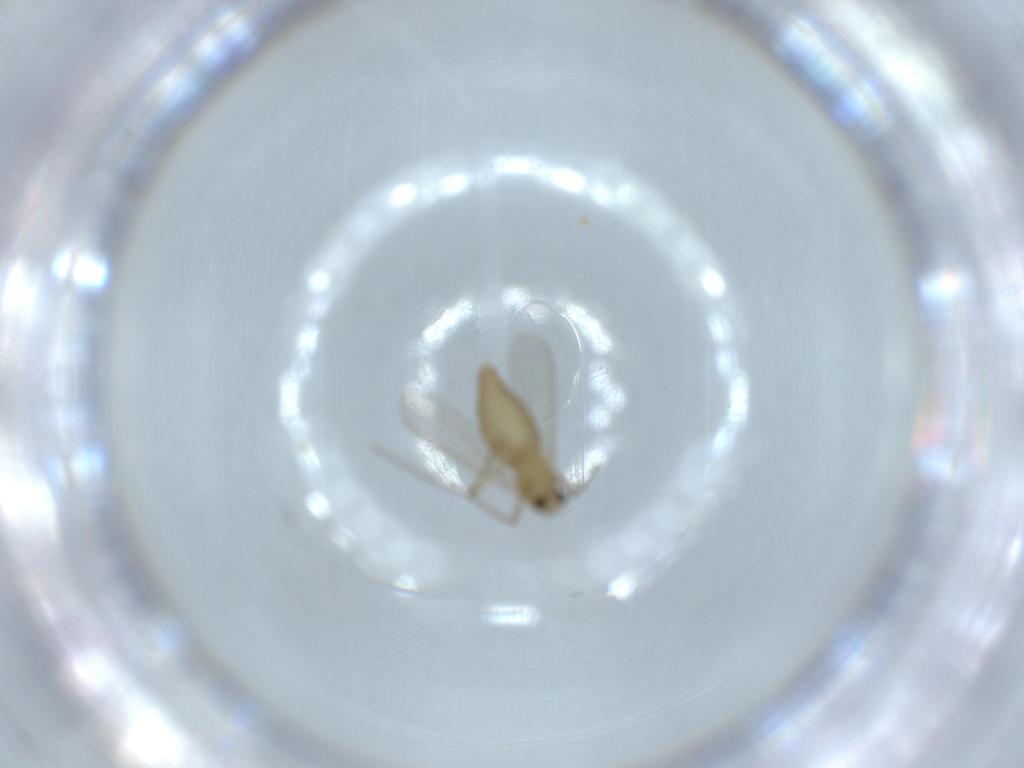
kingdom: Animalia
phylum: Arthropoda
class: Insecta
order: Diptera
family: Chironomidae
